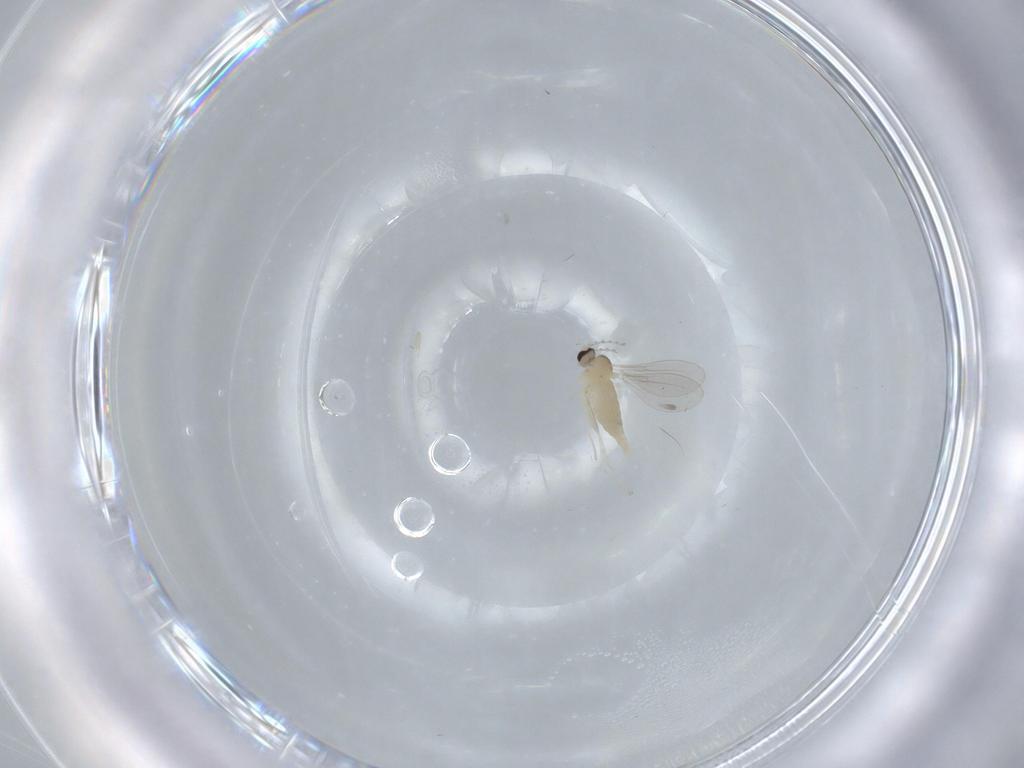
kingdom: Animalia
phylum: Arthropoda
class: Insecta
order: Diptera
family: Cecidomyiidae
